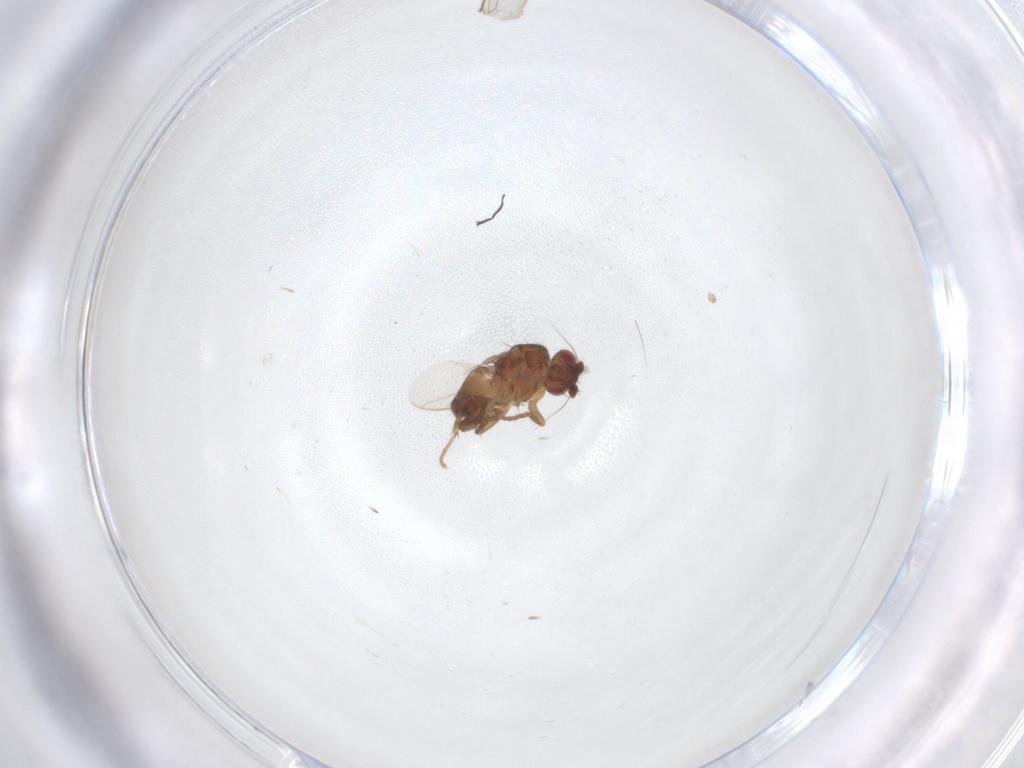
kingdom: Animalia
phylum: Arthropoda
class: Insecta
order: Diptera
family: Sphaeroceridae
